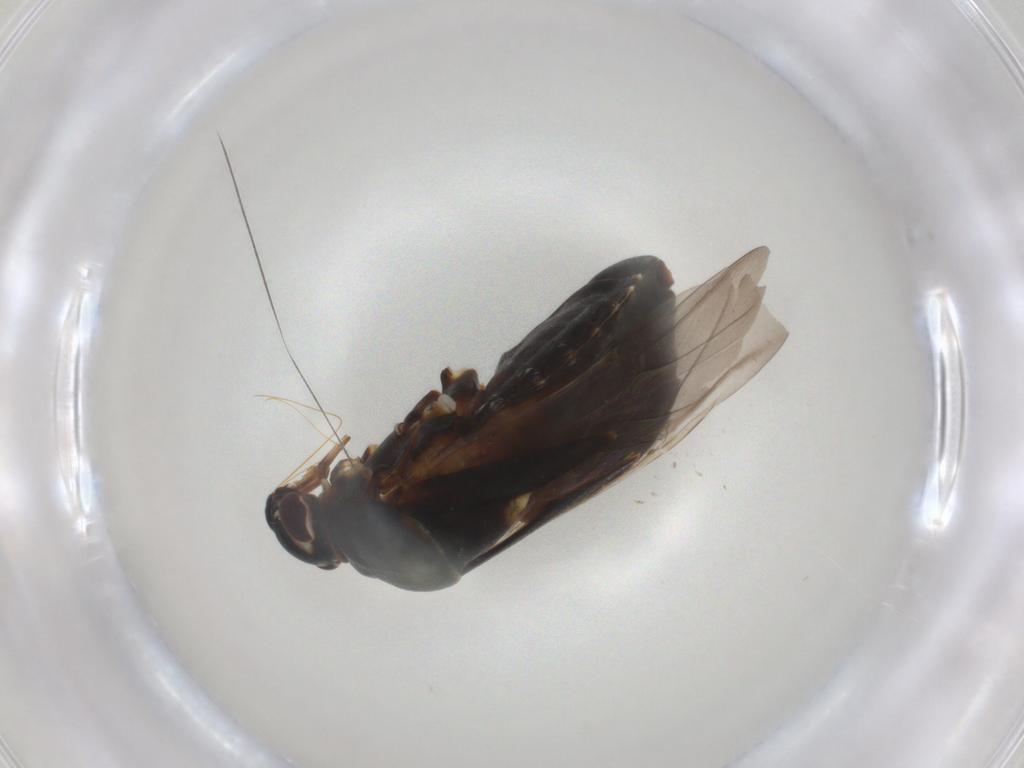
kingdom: Animalia
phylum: Arthropoda
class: Insecta
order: Hemiptera
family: Aphididae
